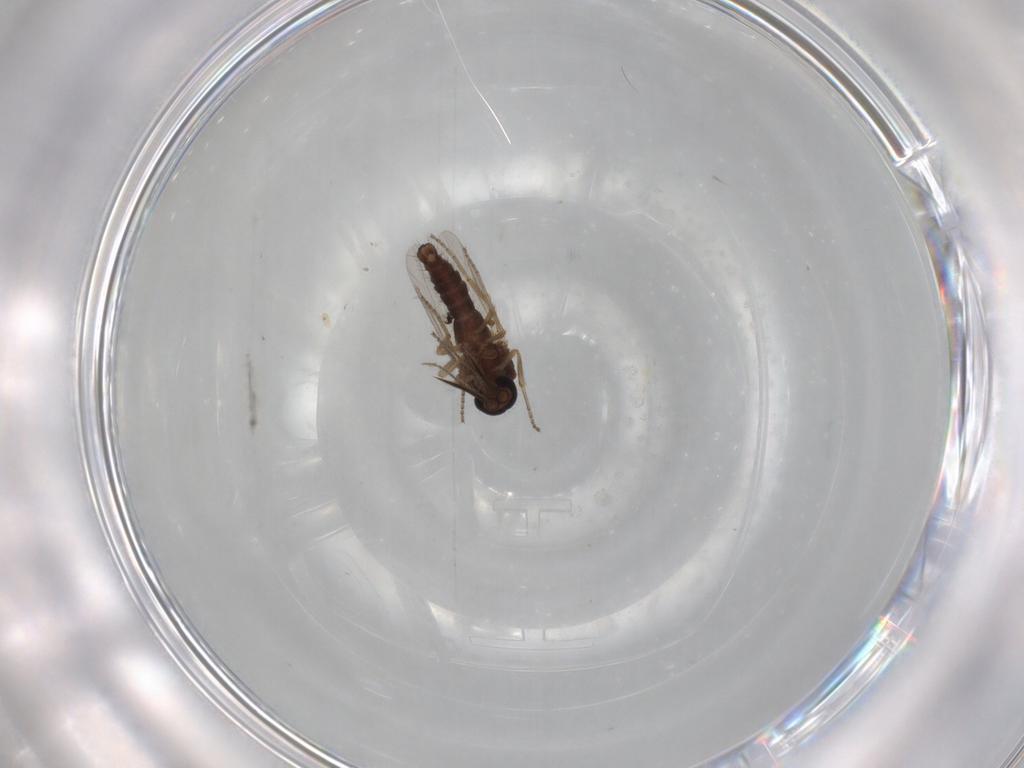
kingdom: Animalia
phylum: Arthropoda
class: Insecta
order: Diptera
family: Ceratopogonidae
